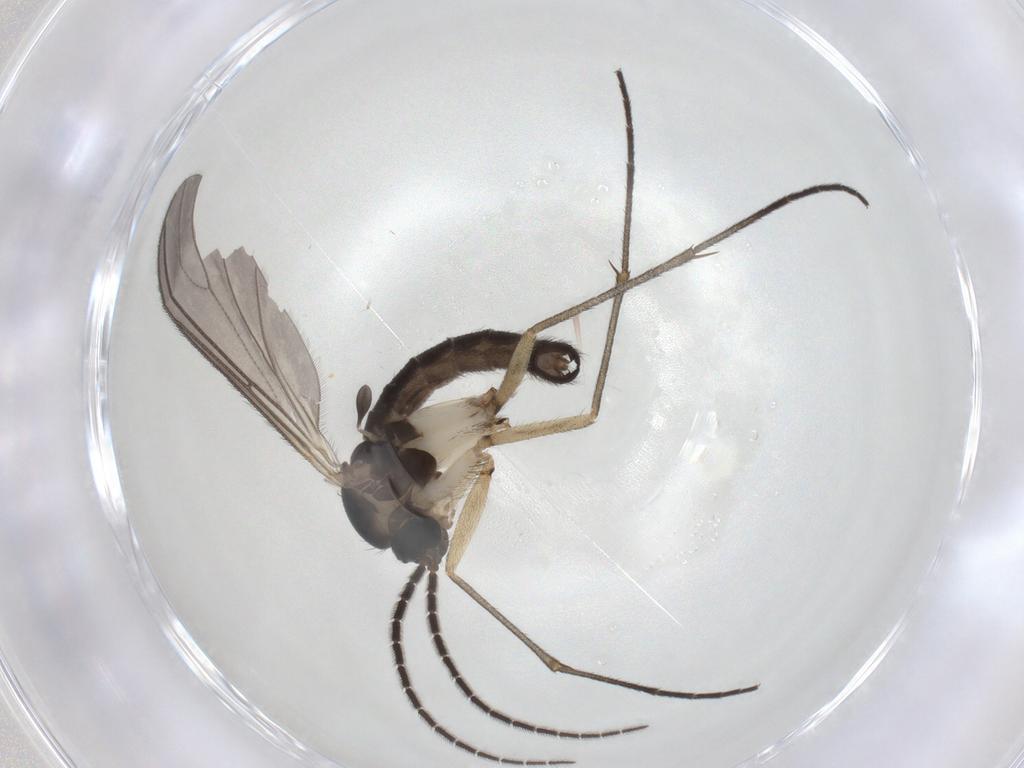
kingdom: Animalia
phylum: Arthropoda
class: Insecta
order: Diptera
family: Sciaridae
